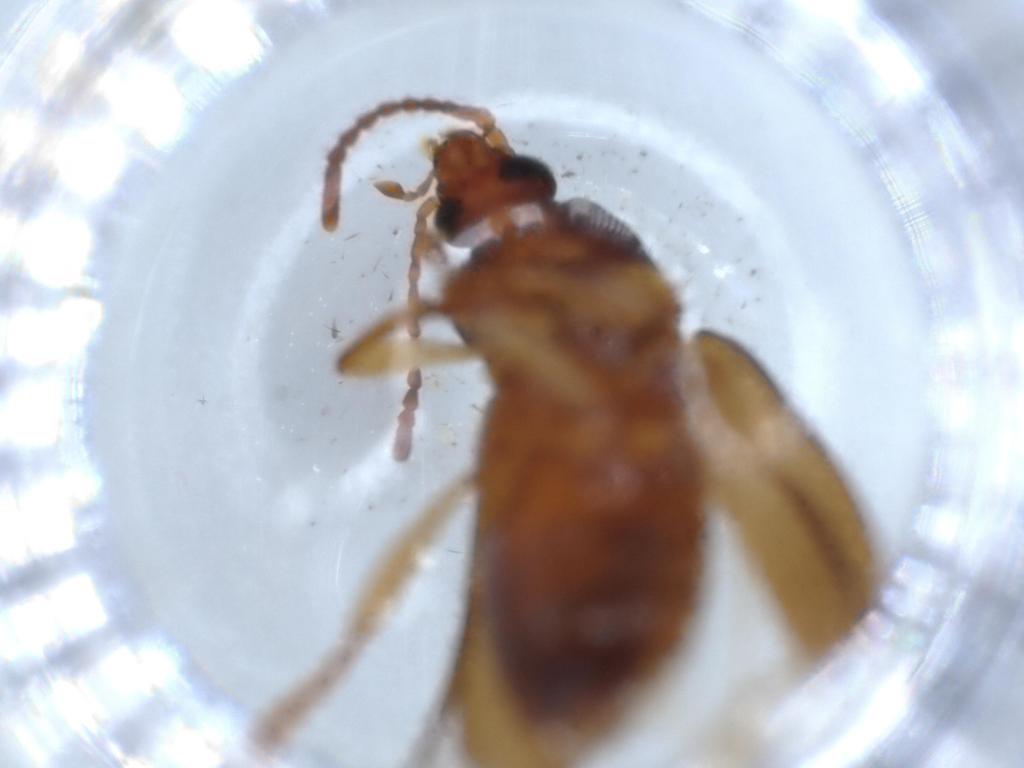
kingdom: Animalia
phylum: Arthropoda
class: Insecta
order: Coleoptera
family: Tenebrionidae
